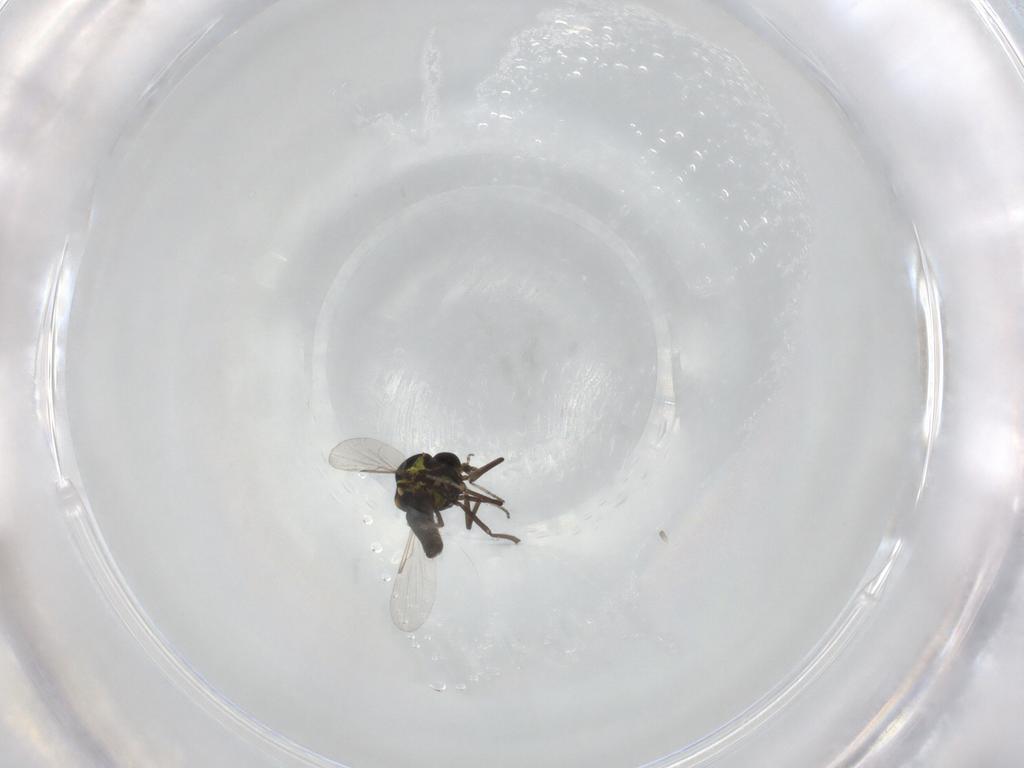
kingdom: Animalia
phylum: Arthropoda
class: Insecta
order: Diptera
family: Ceratopogonidae
